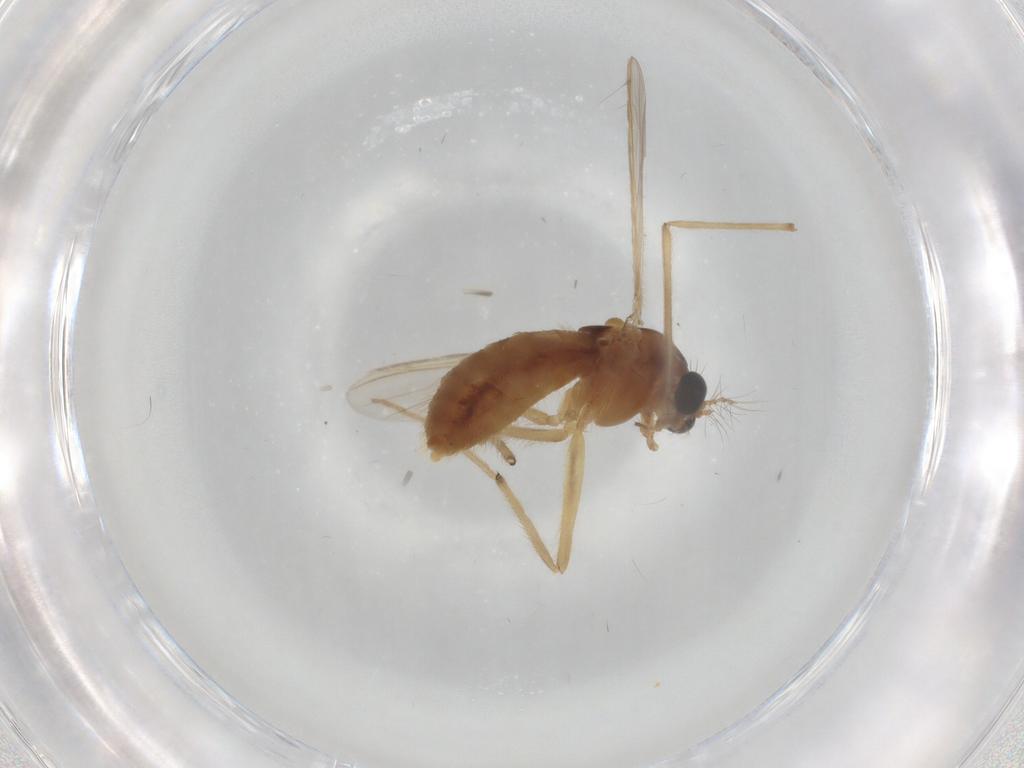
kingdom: Animalia
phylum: Arthropoda
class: Insecta
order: Diptera
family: Chironomidae
